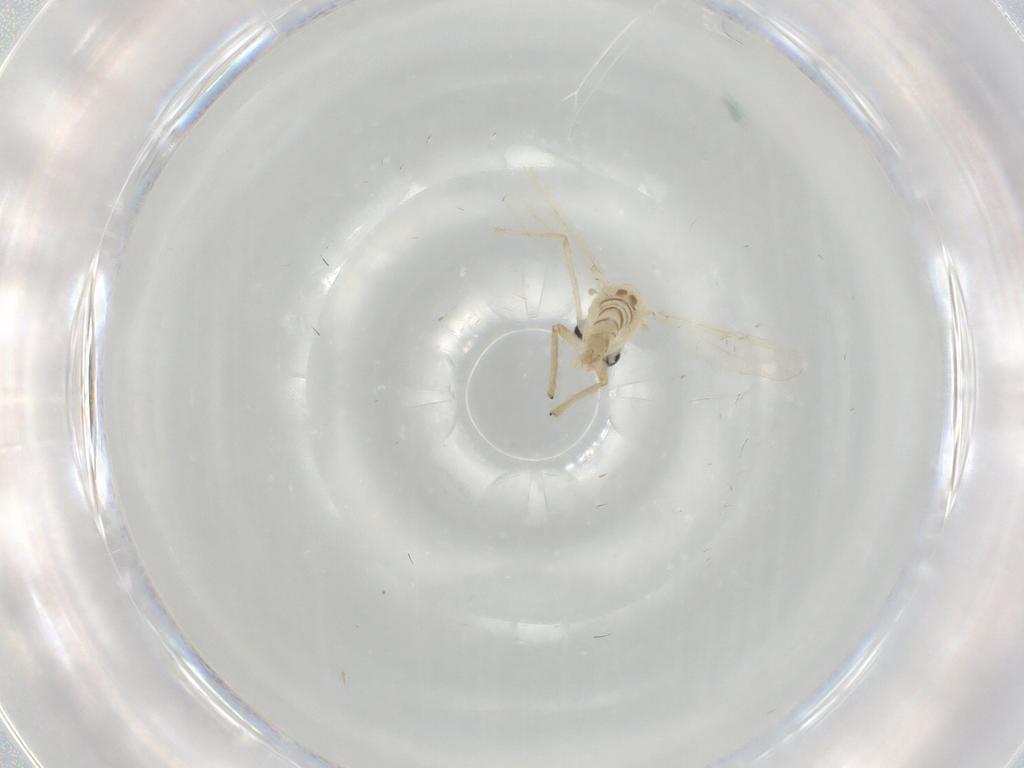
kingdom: Animalia
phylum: Arthropoda
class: Insecta
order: Diptera
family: Chironomidae
